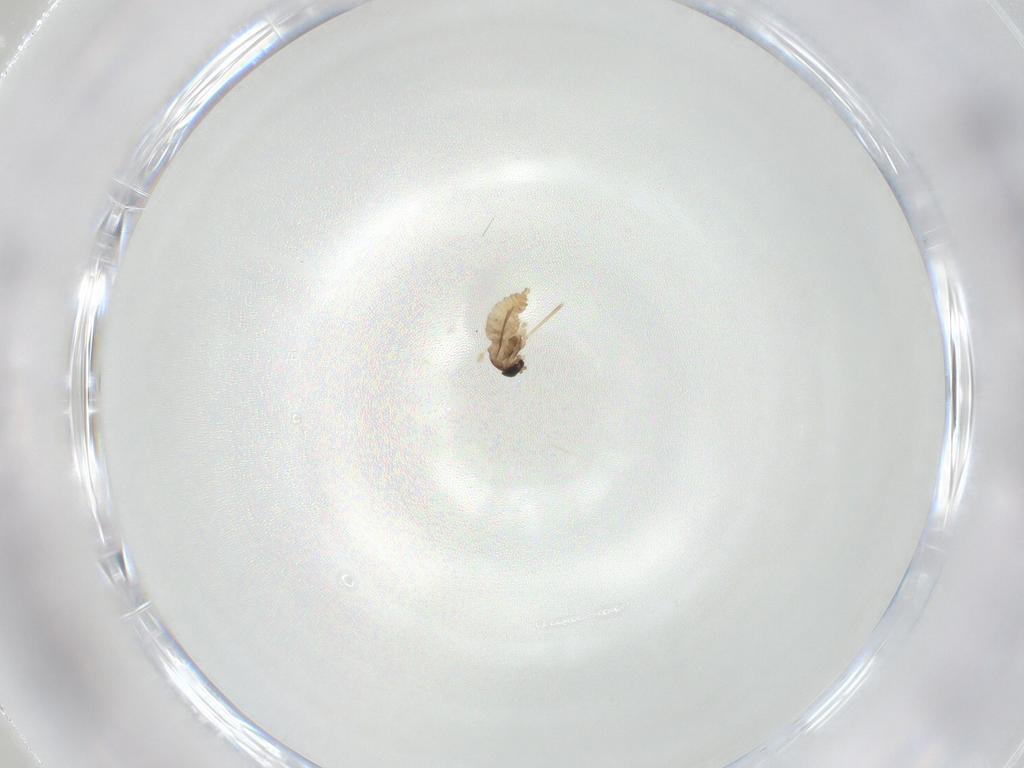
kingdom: Animalia
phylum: Arthropoda
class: Insecta
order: Diptera
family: Cecidomyiidae
